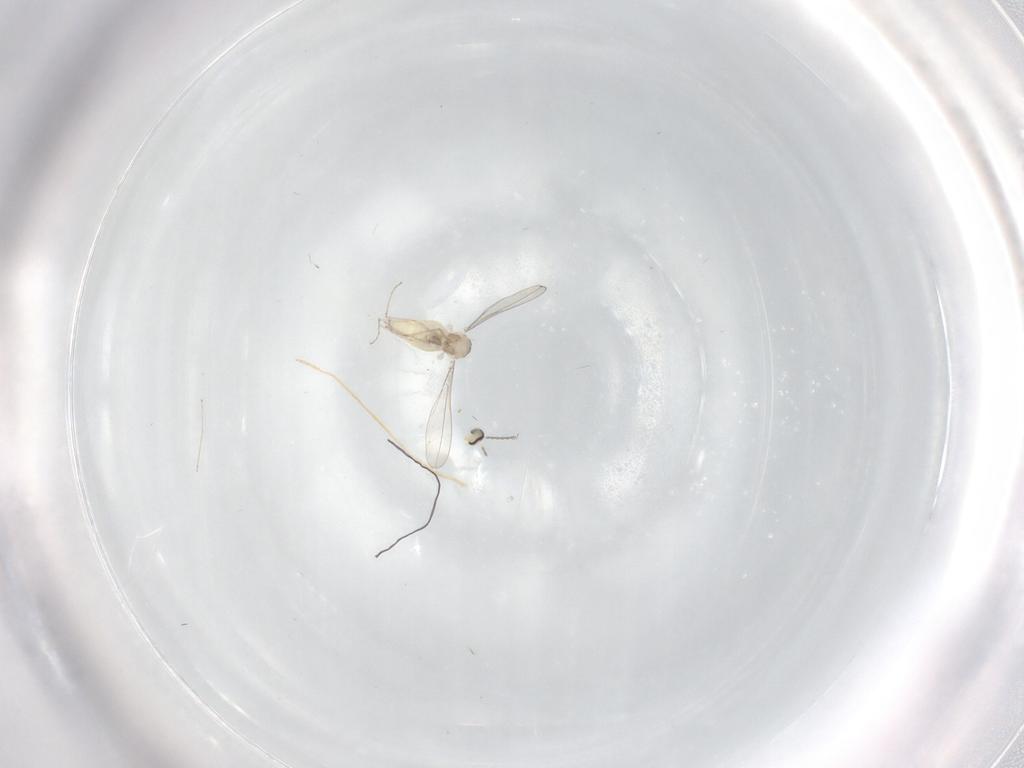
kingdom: Animalia
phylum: Arthropoda
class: Insecta
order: Diptera
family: Cecidomyiidae
